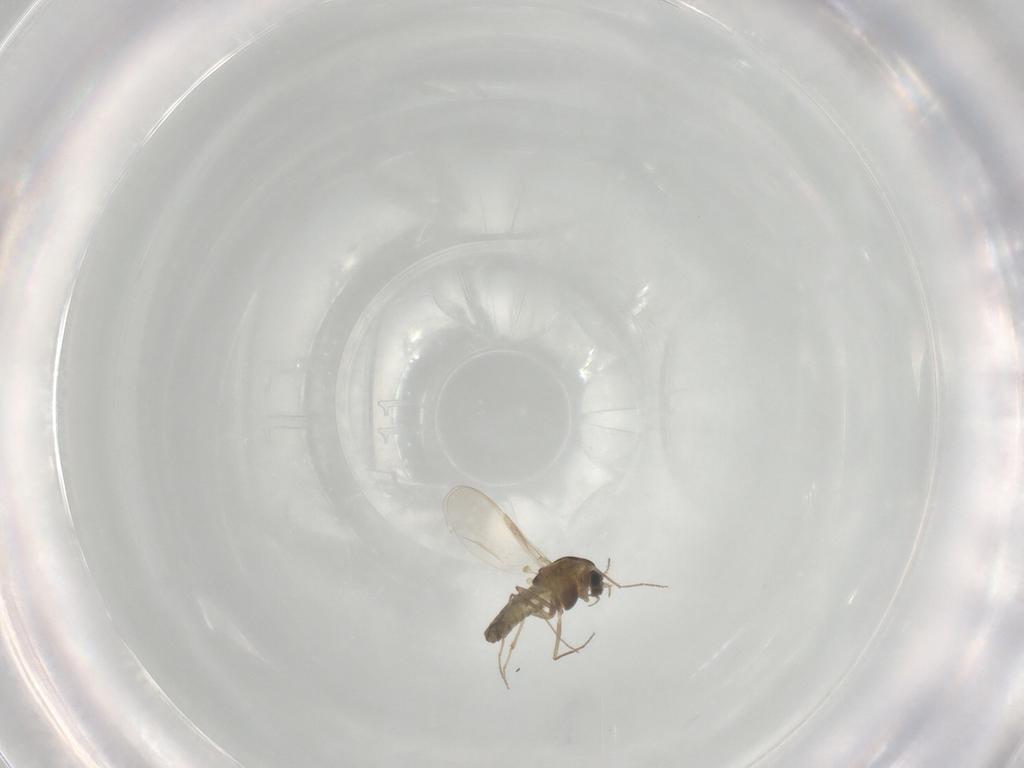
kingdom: Animalia
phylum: Arthropoda
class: Insecta
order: Diptera
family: Chironomidae
